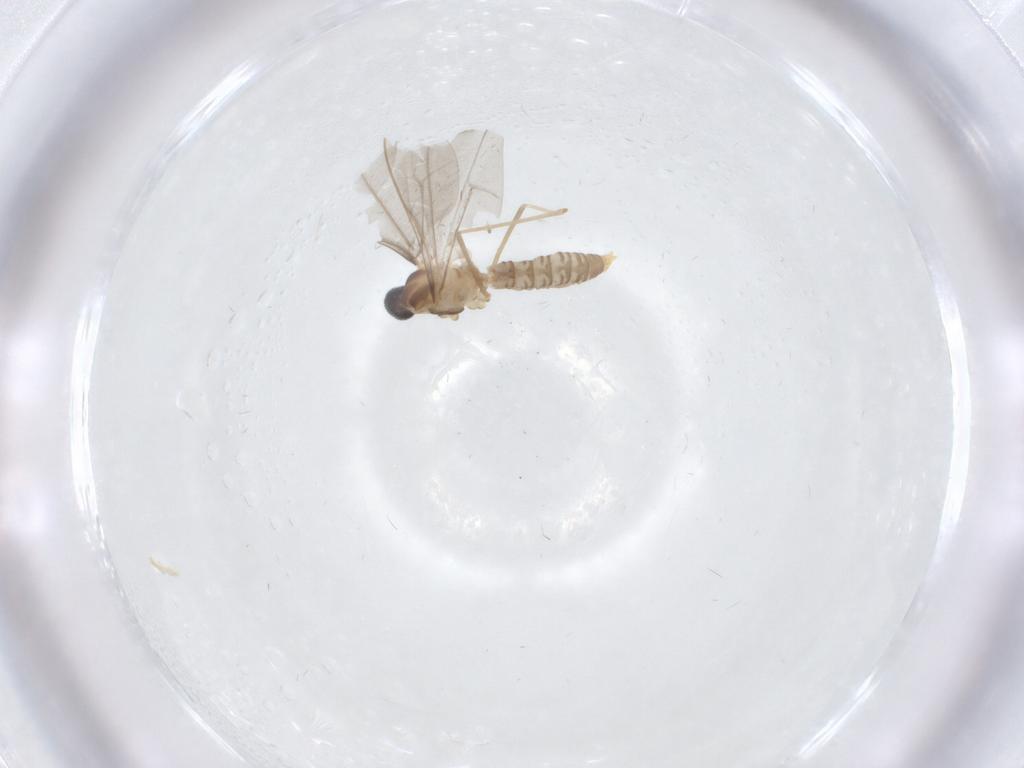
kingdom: Animalia
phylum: Arthropoda
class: Insecta
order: Diptera
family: Cecidomyiidae
